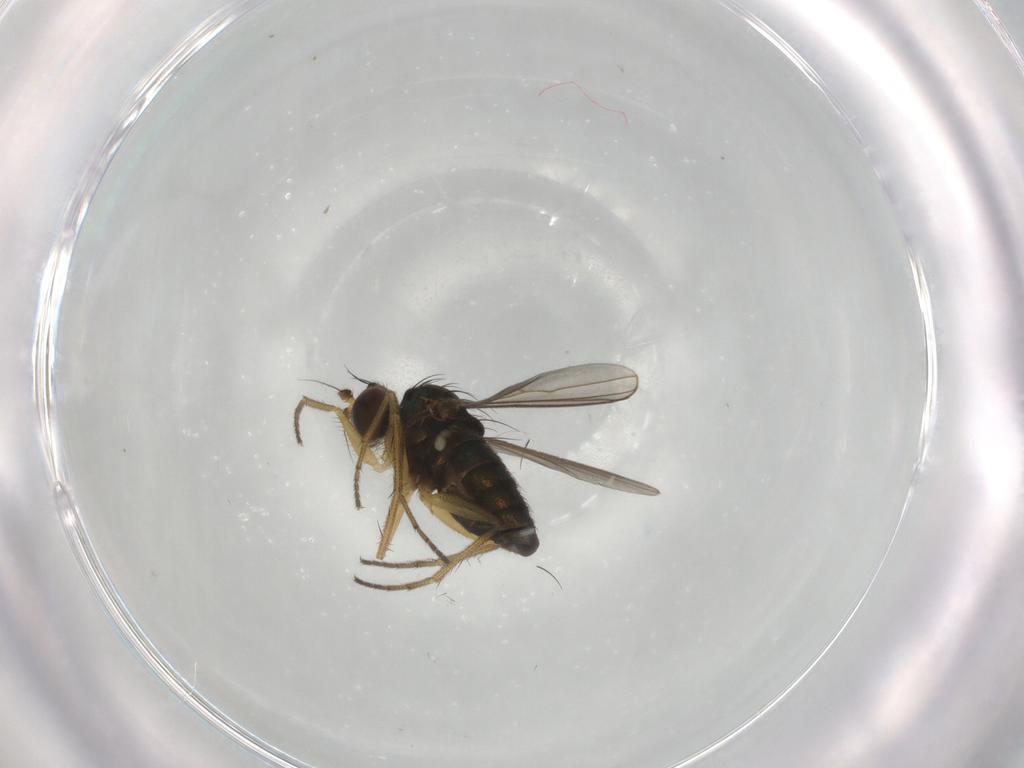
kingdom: Animalia
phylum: Arthropoda
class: Insecta
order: Diptera
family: Dolichopodidae
